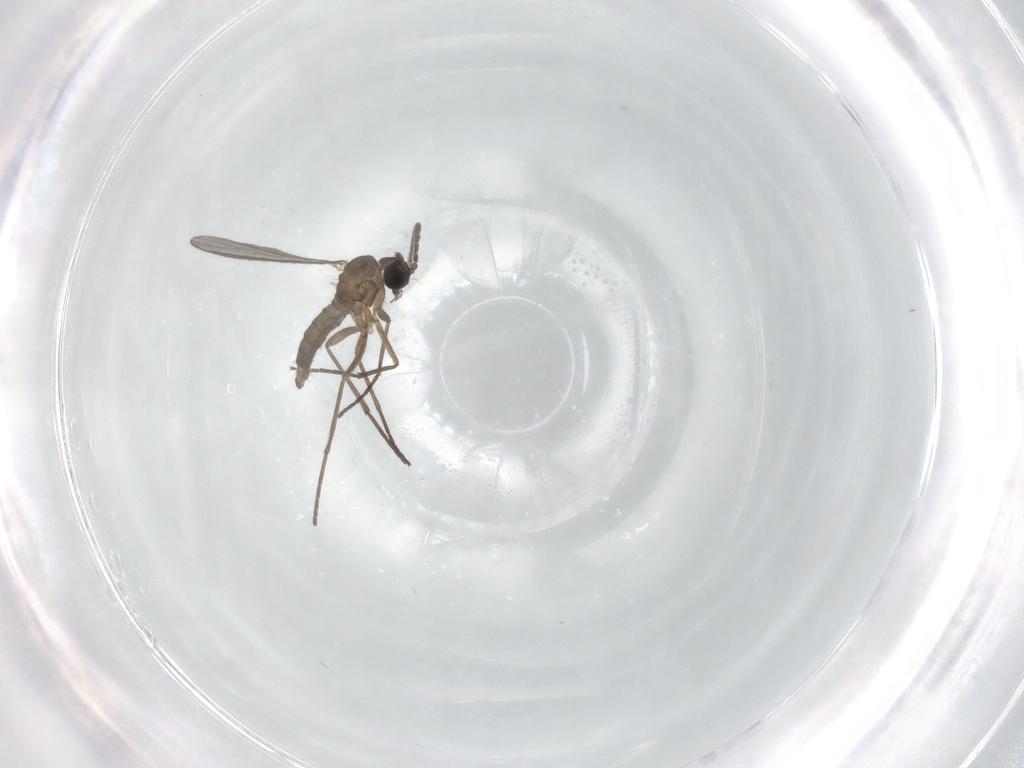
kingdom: Animalia
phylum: Arthropoda
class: Insecta
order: Diptera
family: Sciaridae
